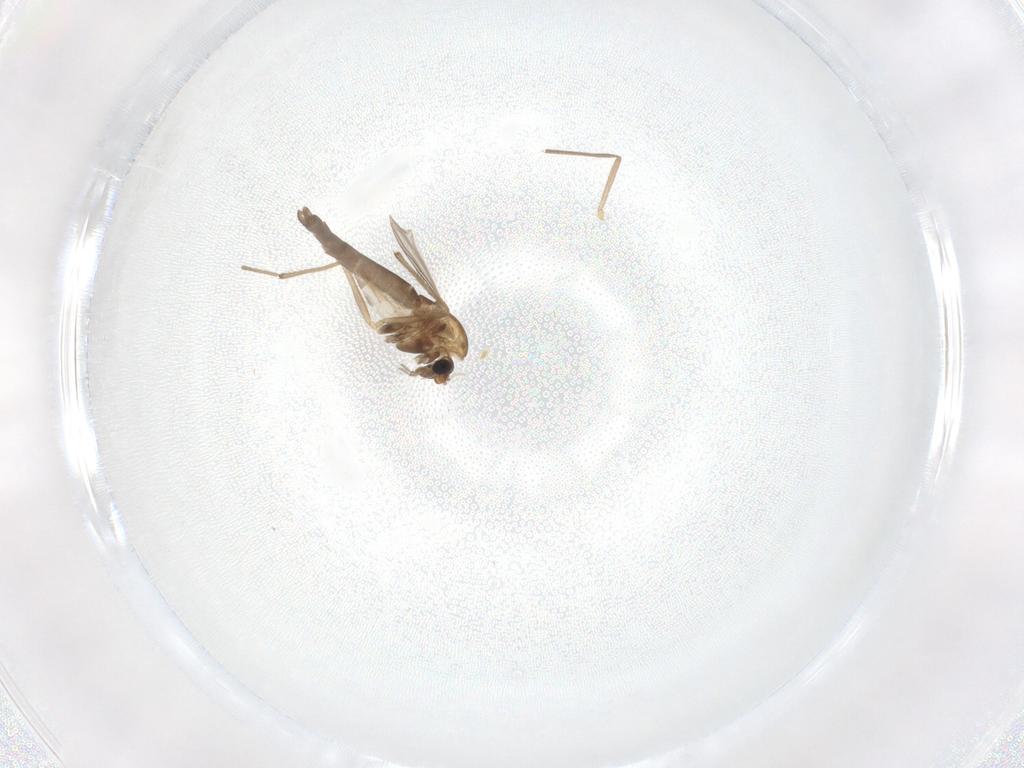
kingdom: Animalia
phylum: Arthropoda
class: Insecta
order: Diptera
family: Chironomidae
